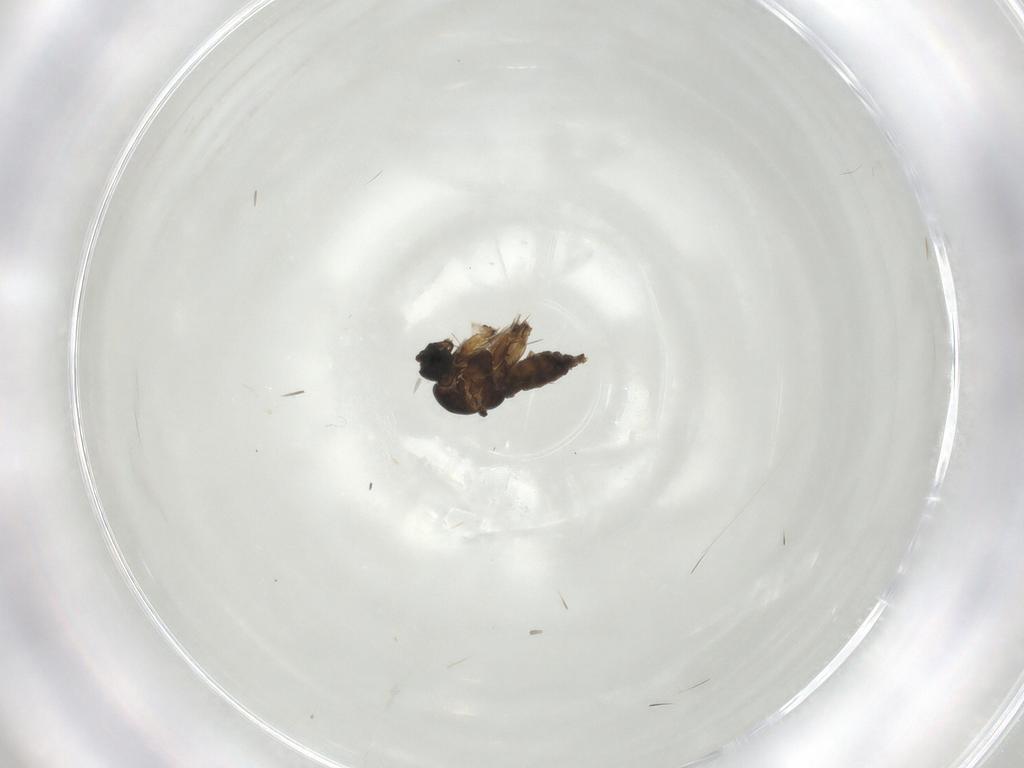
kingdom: Animalia
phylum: Arthropoda
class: Insecta
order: Diptera
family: Sciaridae
